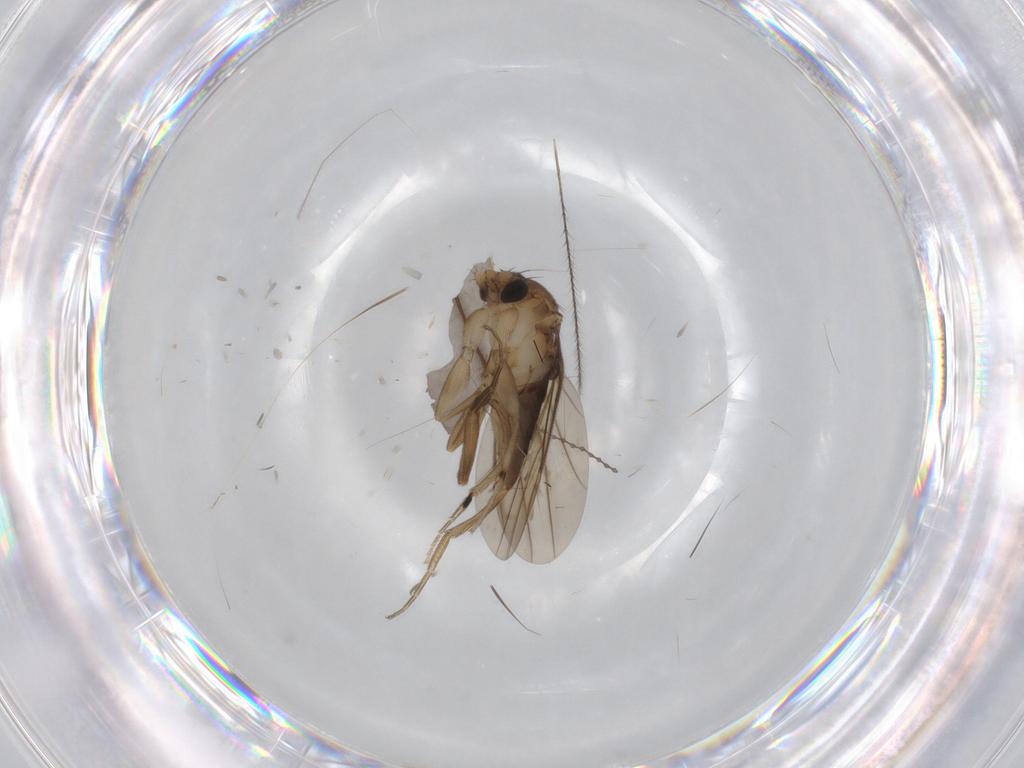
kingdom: Animalia
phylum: Arthropoda
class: Insecta
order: Diptera
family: Phoridae
